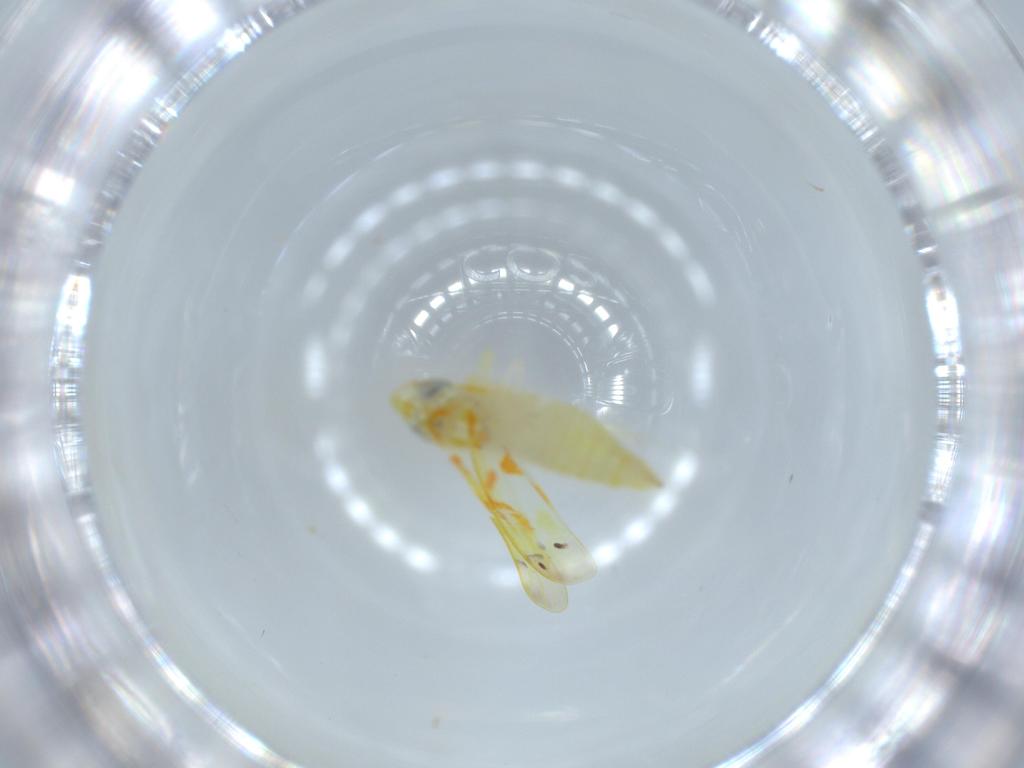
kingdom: Animalia
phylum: Arthropoda
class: Insecta
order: Hemiptera
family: Cicadellidae
